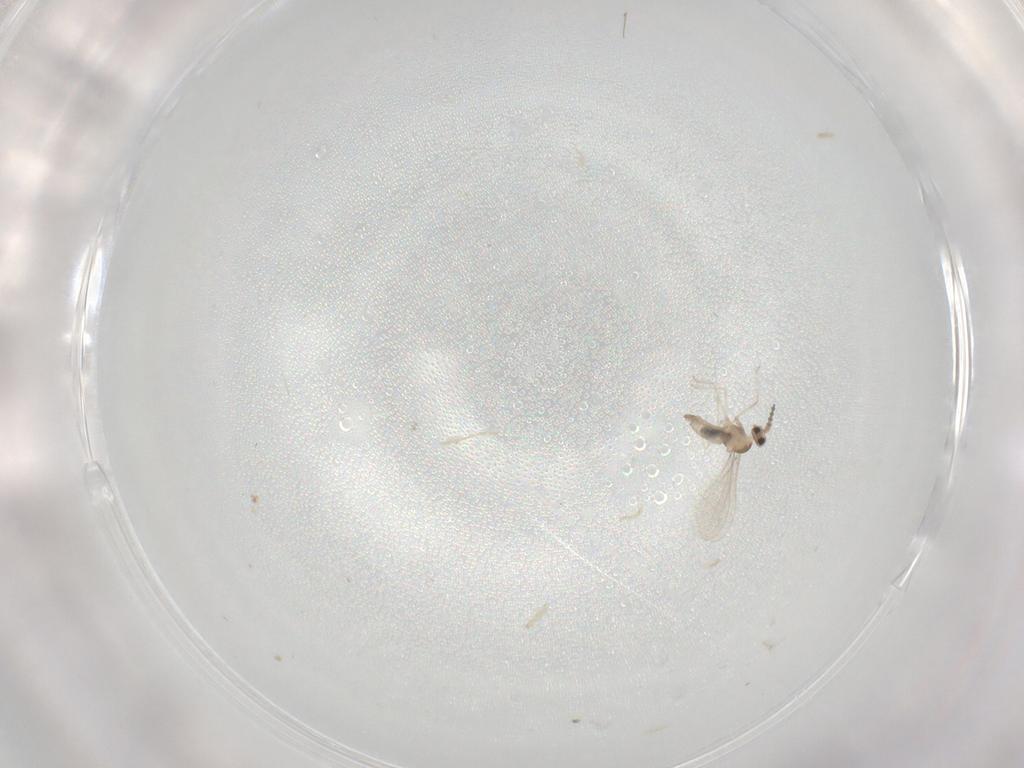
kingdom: Animalia
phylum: Arthropoda
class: Insecta
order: Diptera
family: Cecidomyiidae
